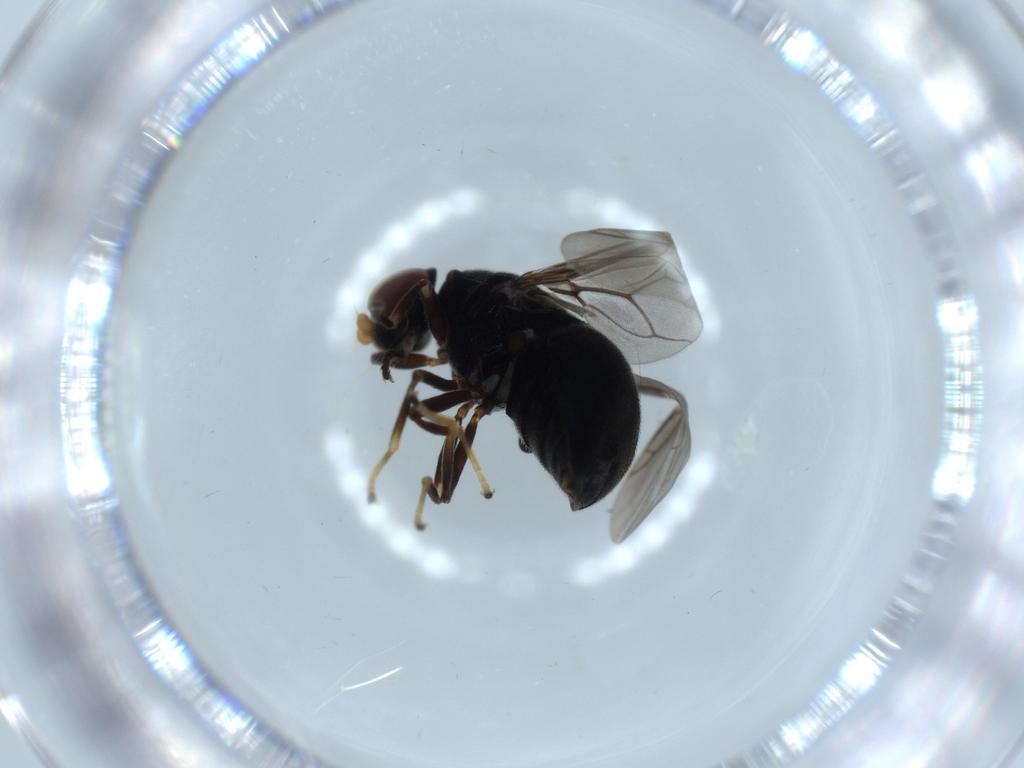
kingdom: Animalia
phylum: Arthropoda
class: Insecta
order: Diptera
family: Stratiomyidae
